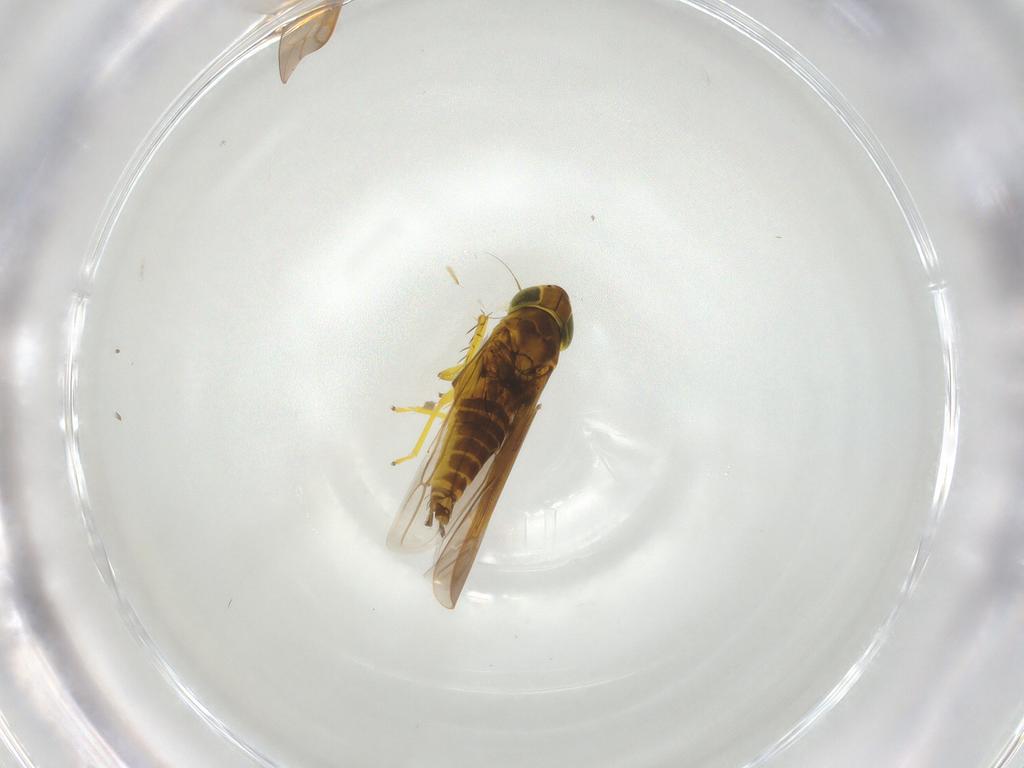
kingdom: Animalia
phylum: Arthropoda
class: Insecta
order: Hemiptera
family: Cicadellidae
